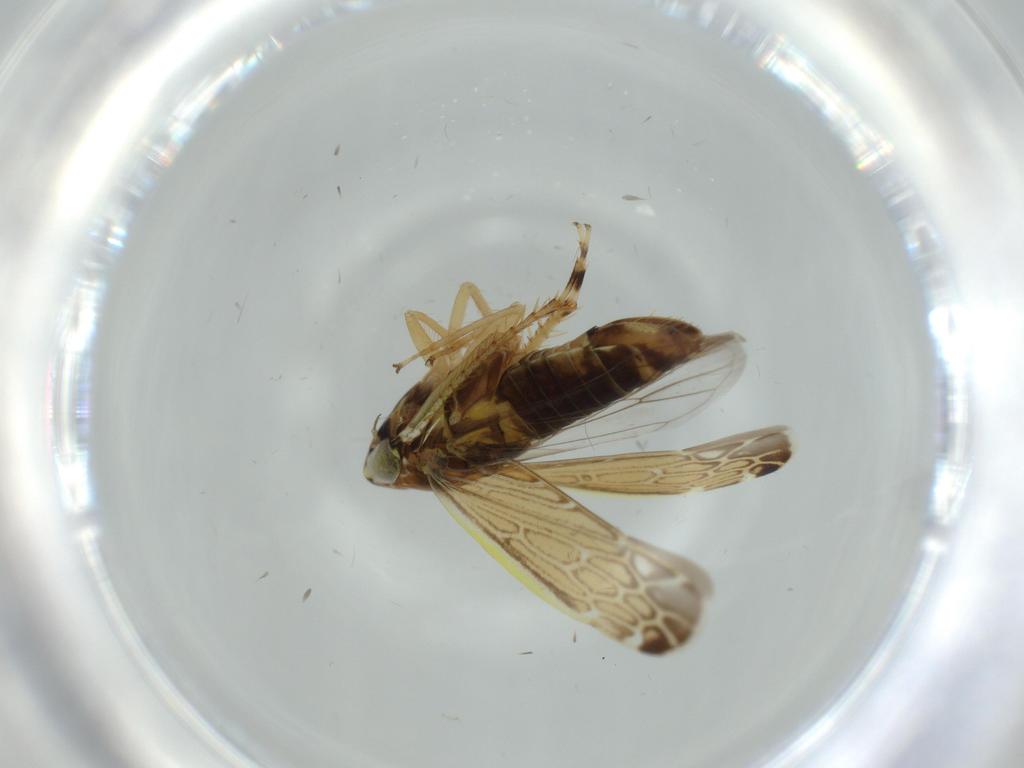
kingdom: Animalia
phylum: Arthropoda
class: Insecta
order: Hemiptera
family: Cicadellidae
